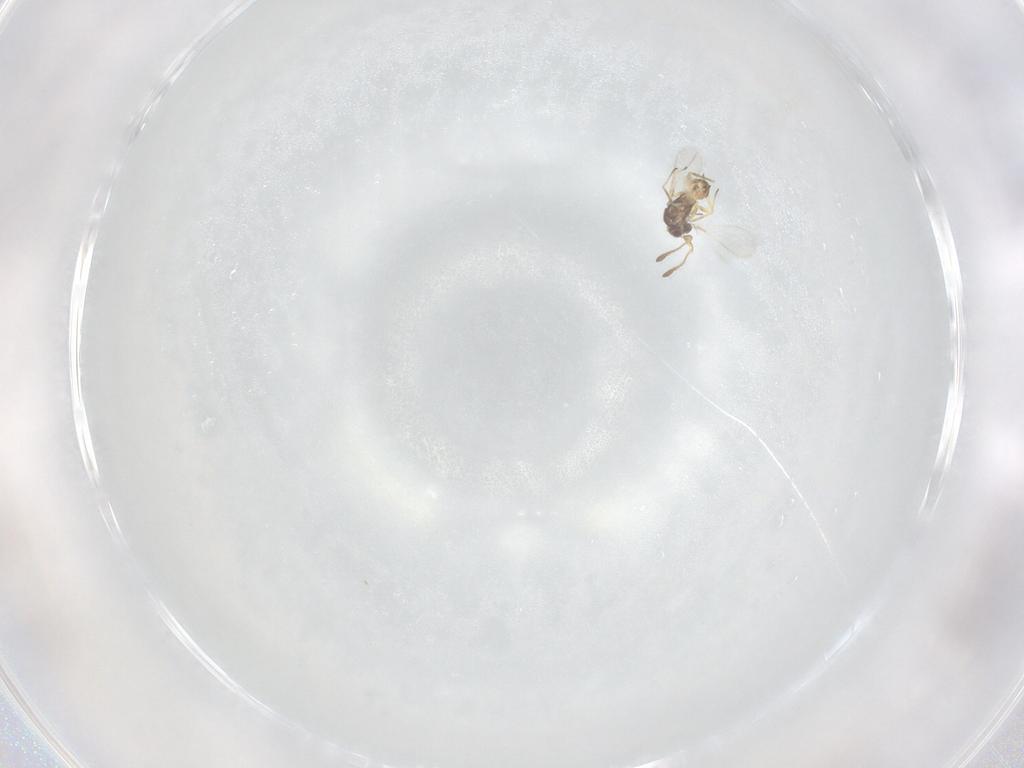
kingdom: Animalia
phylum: Arthropoda
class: Insecta
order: Hymenoptera
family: Mymaridae
